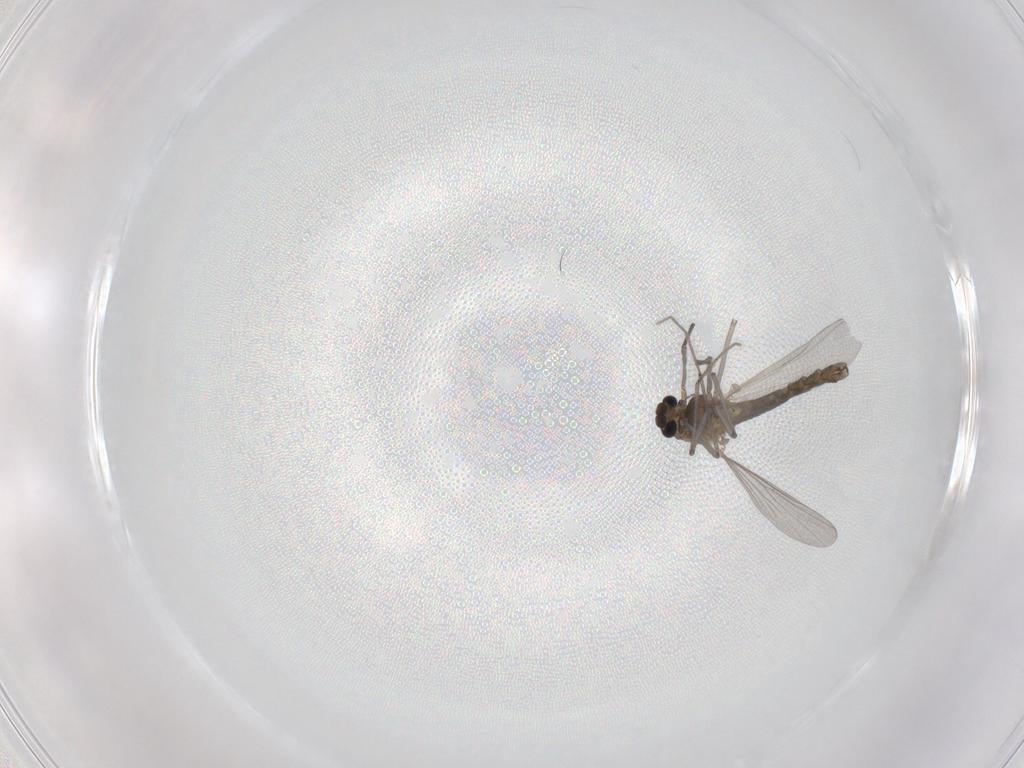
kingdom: Animalia
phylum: Arthropoda
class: Insecta
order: Diptera
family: Chironomidae
